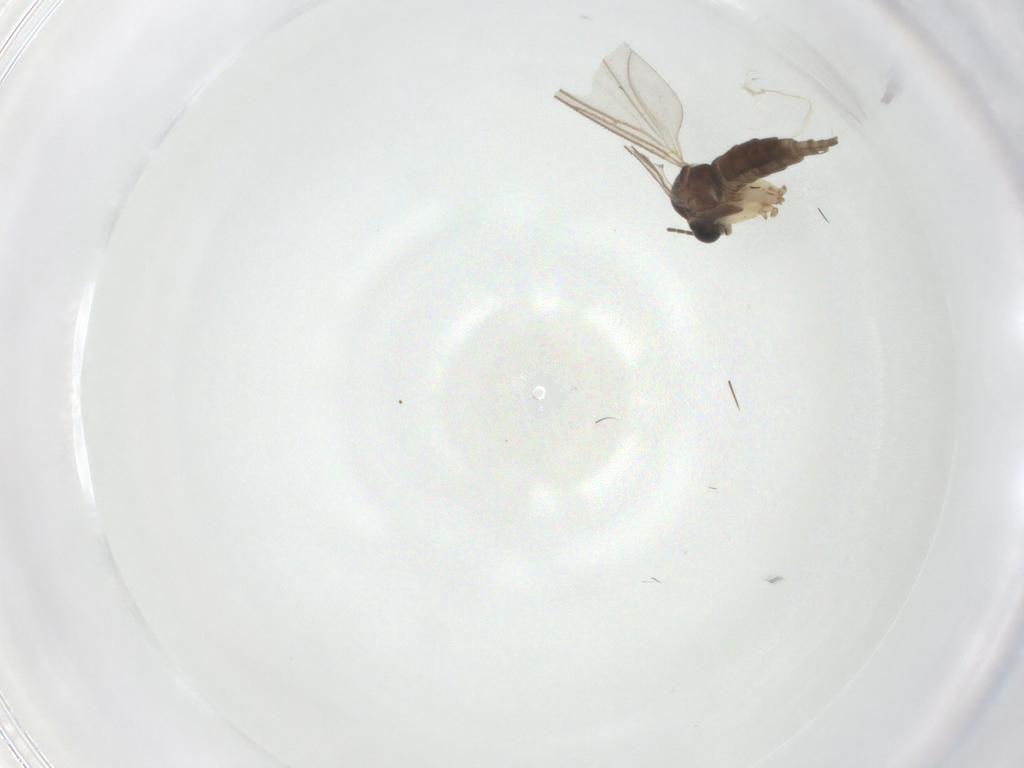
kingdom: Animalia
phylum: Arthropoda
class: Insecta
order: Diptera
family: Sciaridae
